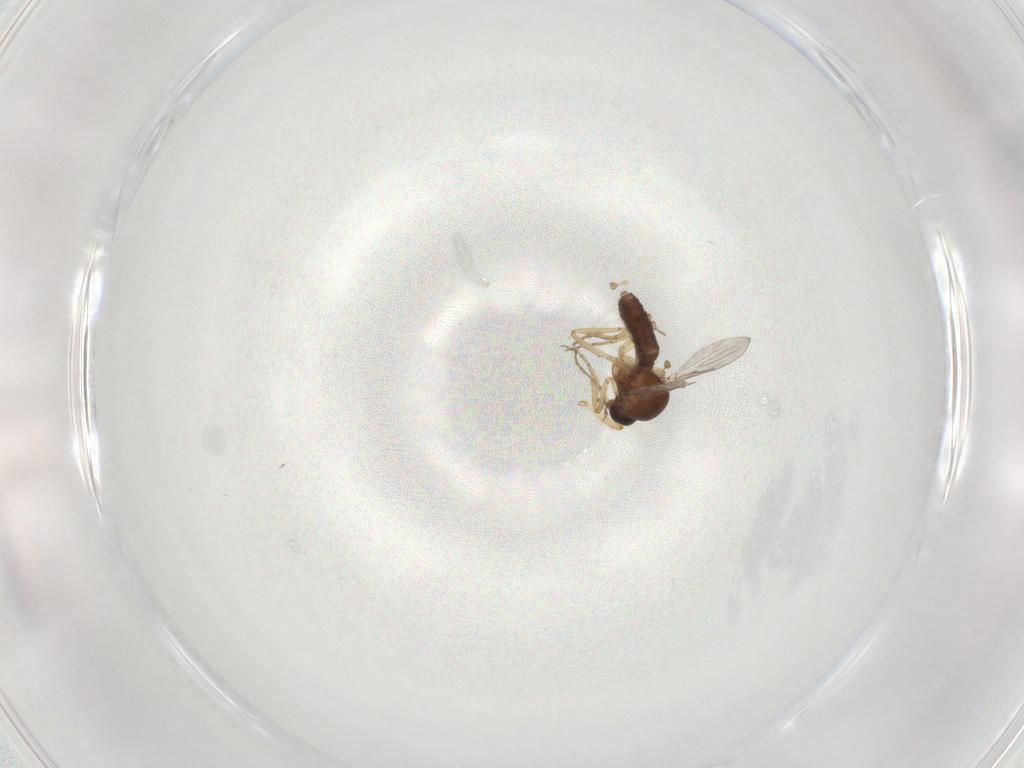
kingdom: Animalia
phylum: Arthropoda
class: Insecta
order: Diptera
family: Ceratopogonidae
